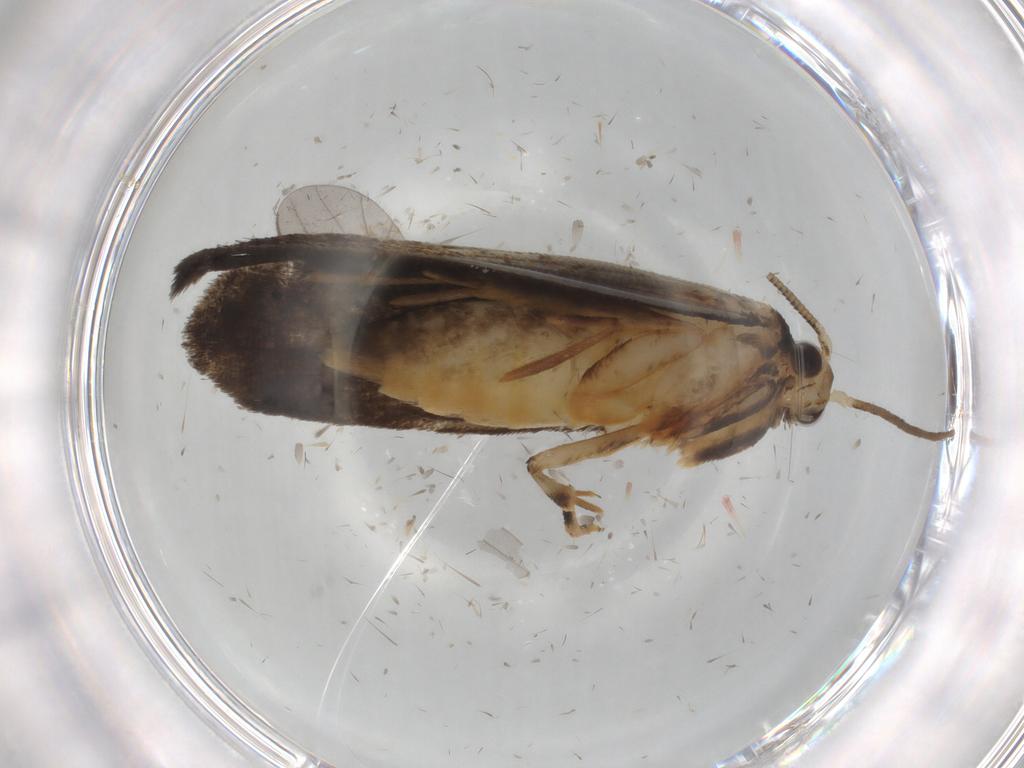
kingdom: Animalia
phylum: Arthropoda
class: Insecta
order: Lepidoptera
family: Tineidae
